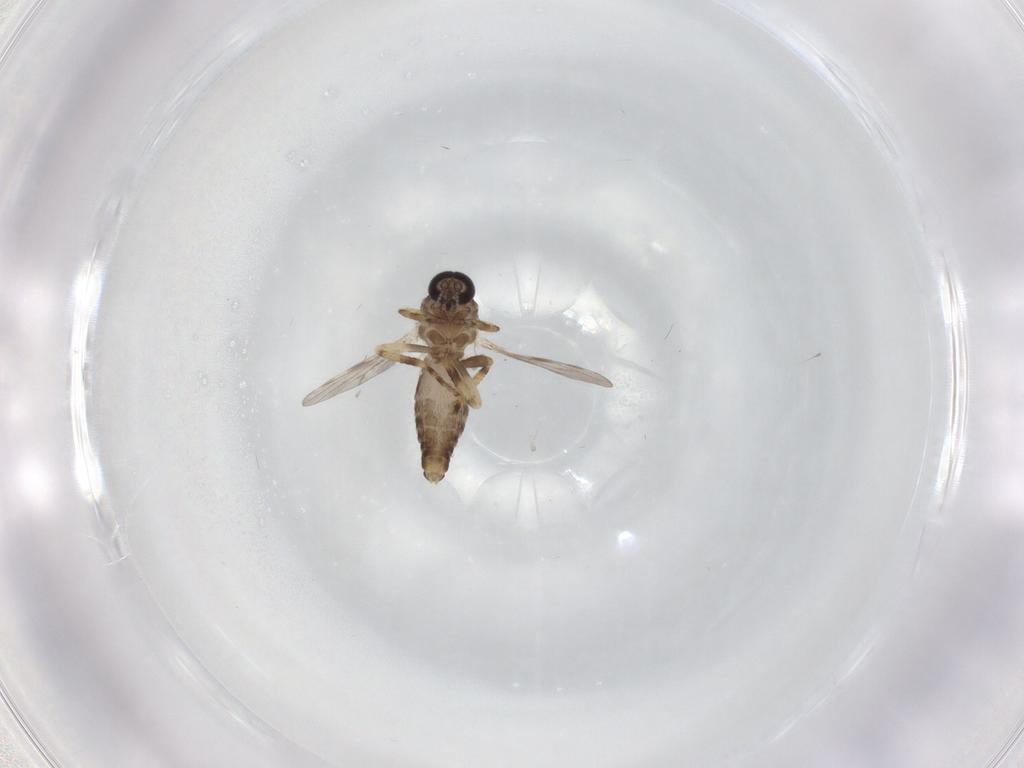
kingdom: Animalia
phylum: Arthropoda
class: Insecta
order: Diptera
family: Ceratopogonidae
